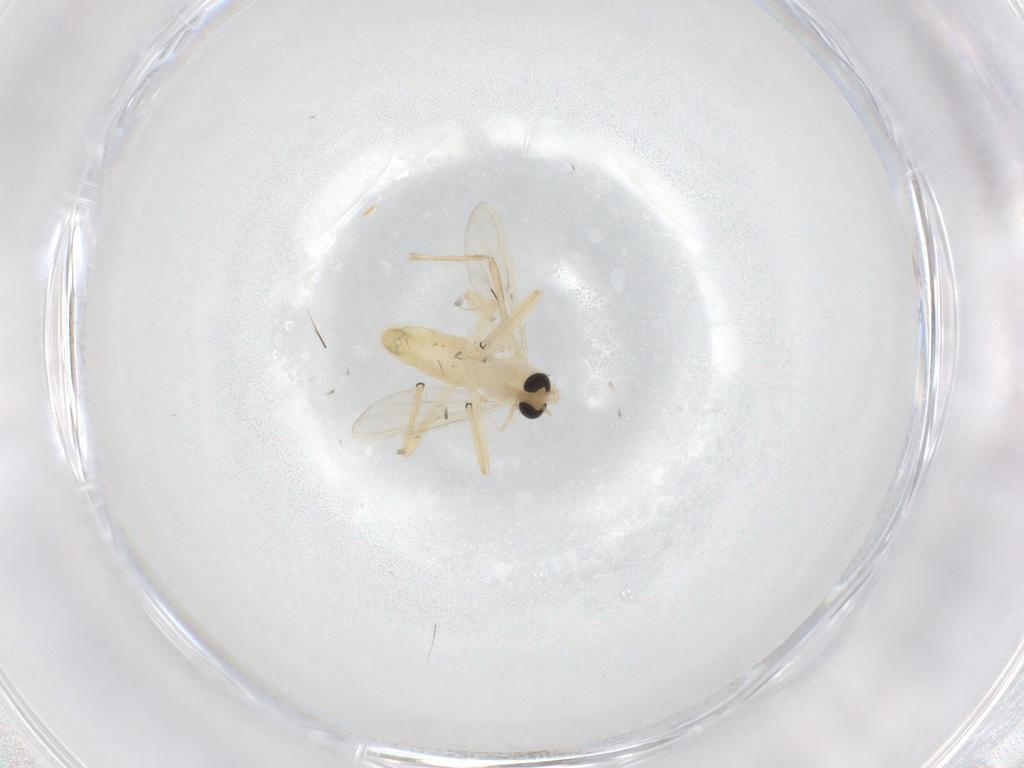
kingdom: Animalia
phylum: Arthropoda
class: Insecta
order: Diptera
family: Chironomidae
